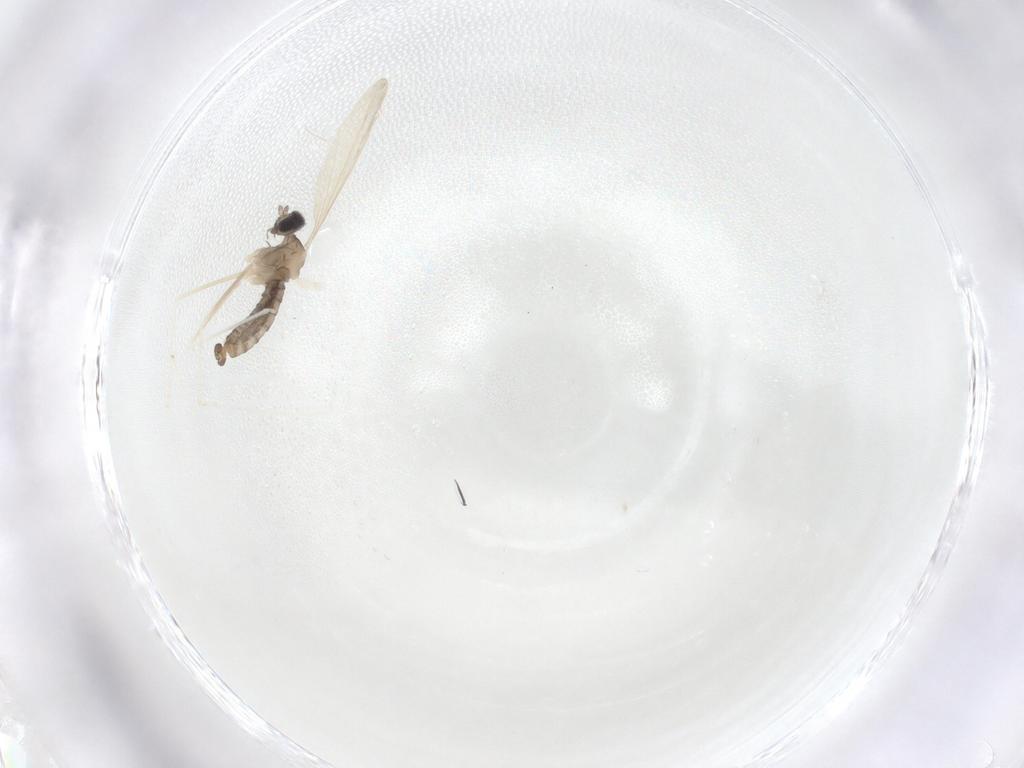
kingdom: Animalia
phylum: Arthropoda
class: Insecta
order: Diptera
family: Cecidomyiidae
